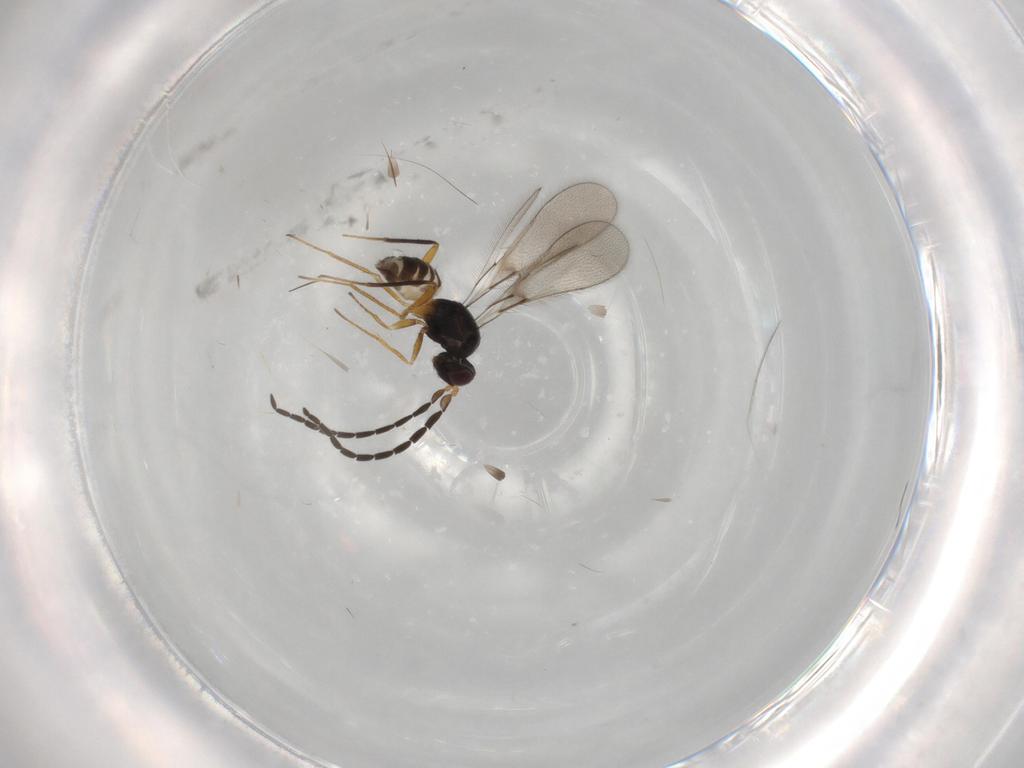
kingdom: Animalia
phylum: Arthropoda
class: Insecta
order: Hymenoptera
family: Mymaridae
